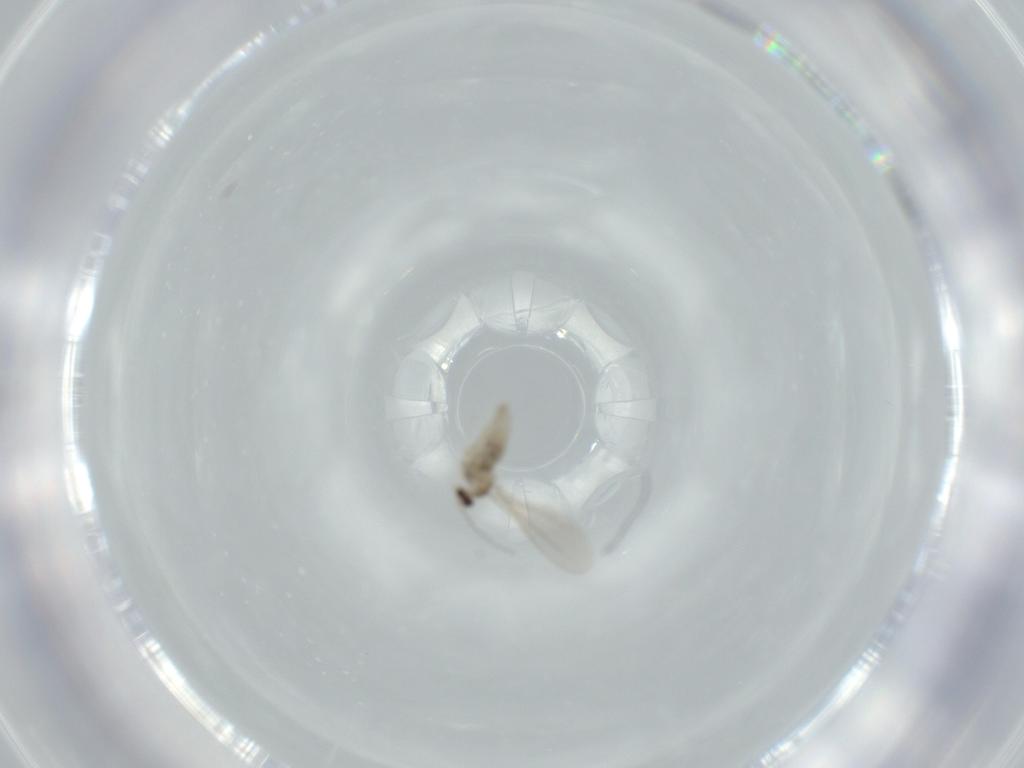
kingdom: Animalia
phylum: Arthropoda
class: Insecta
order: Diptera
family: Cecidomyiidae
